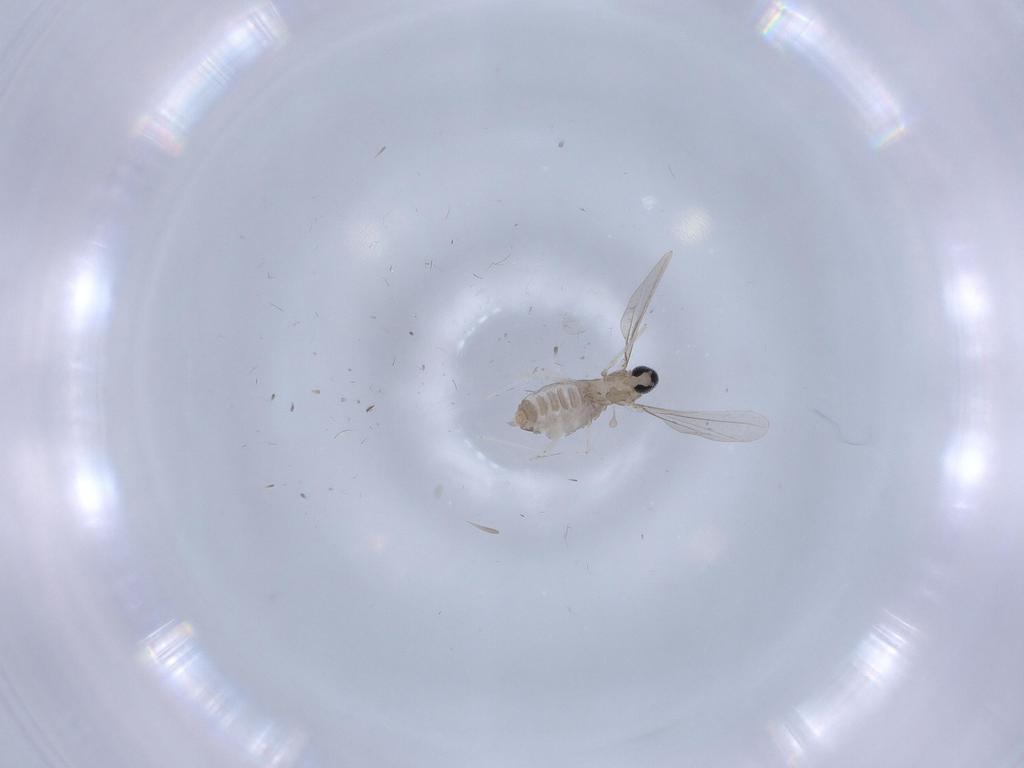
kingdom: Animalia
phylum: Arthropoda
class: Insecta
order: Diptera
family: Cecidomyiidae
